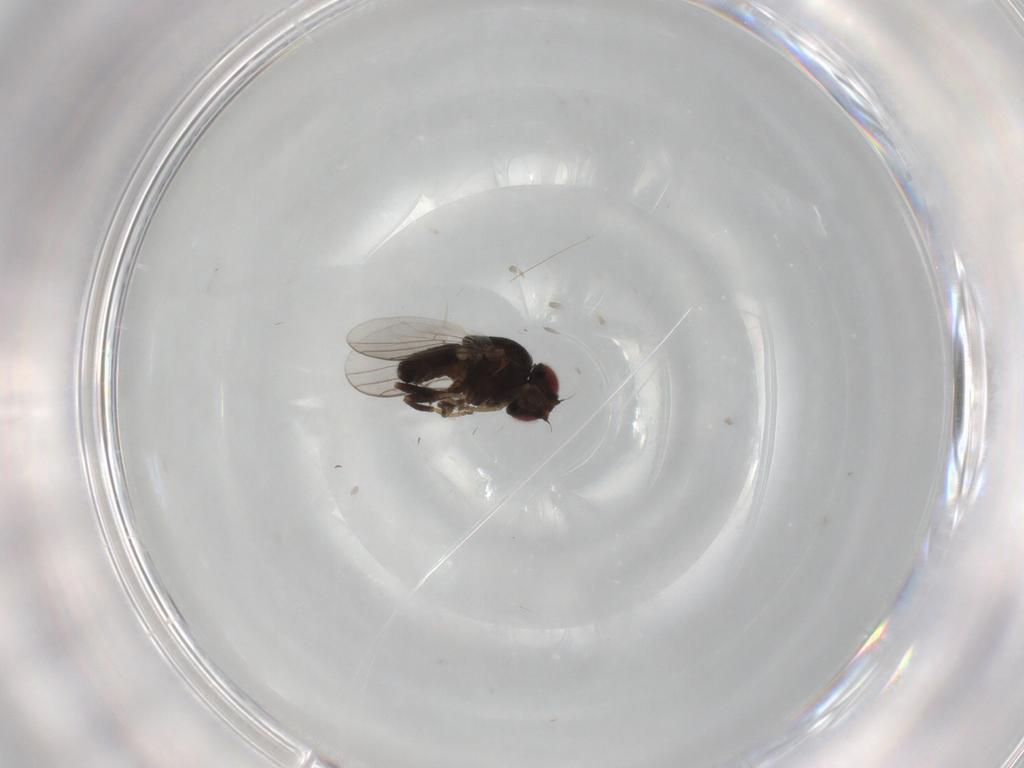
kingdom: Animalia
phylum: Arthropoda
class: Insecta
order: Diptera
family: Chloropidae
